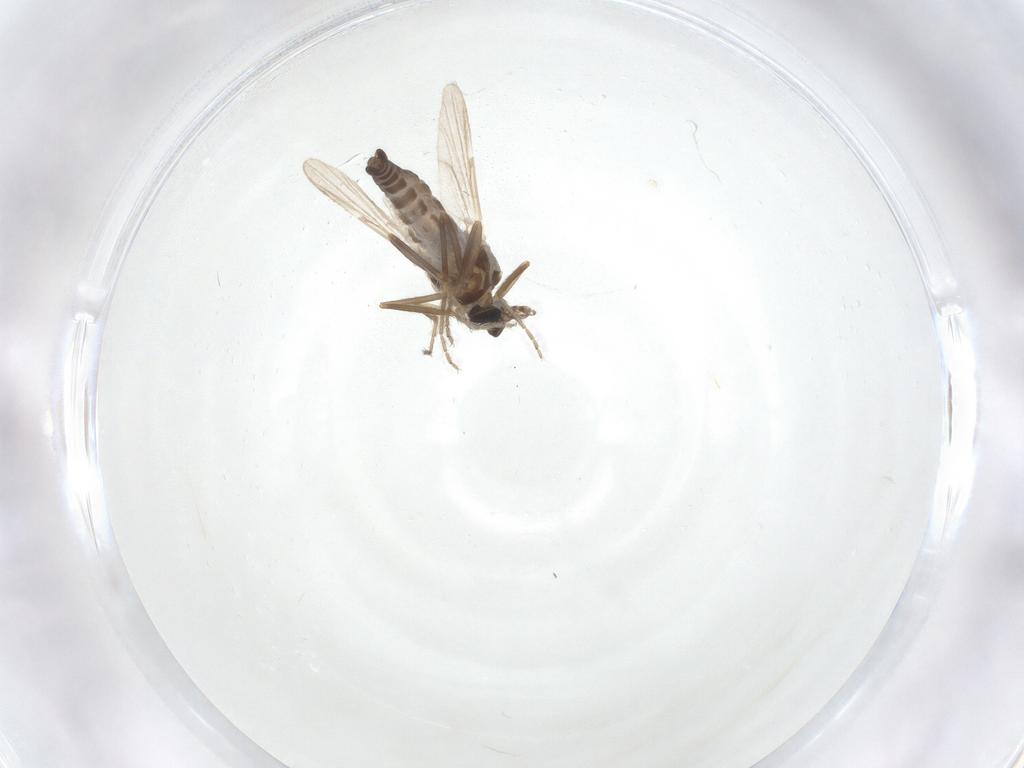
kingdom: Animalia
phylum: Arthropoda
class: Insecta
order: Diptera
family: Ceratopogonidae
